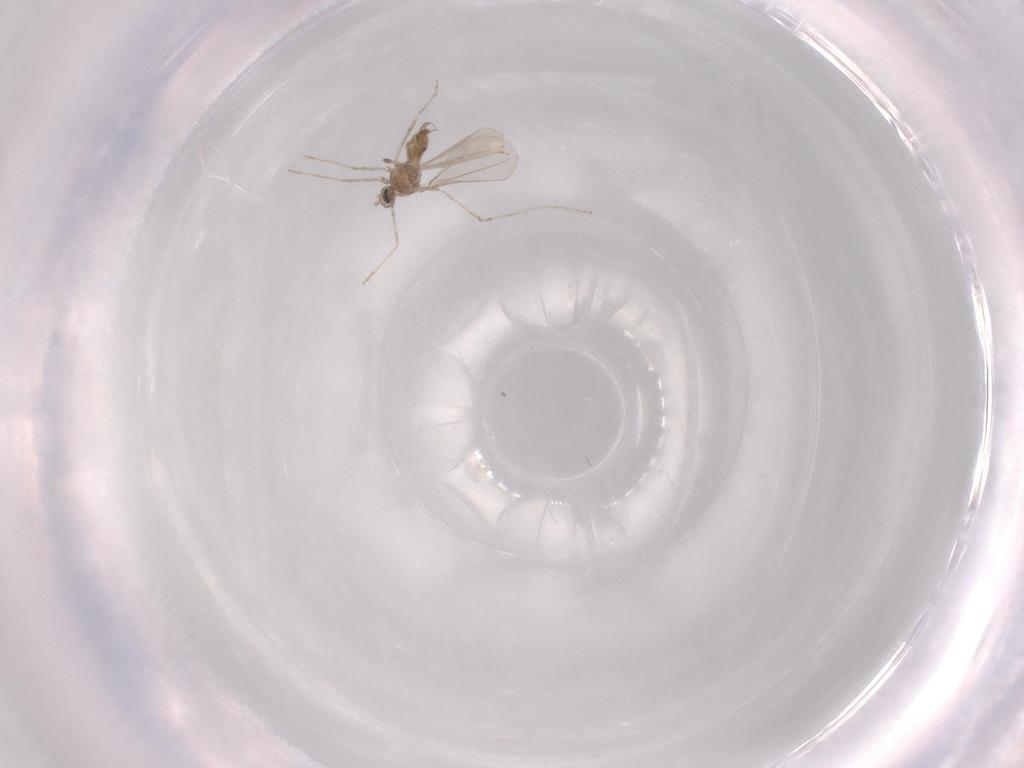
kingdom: Animalia
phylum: Arthropoda
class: Insecta
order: Diptera
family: Cecidomyiidae
